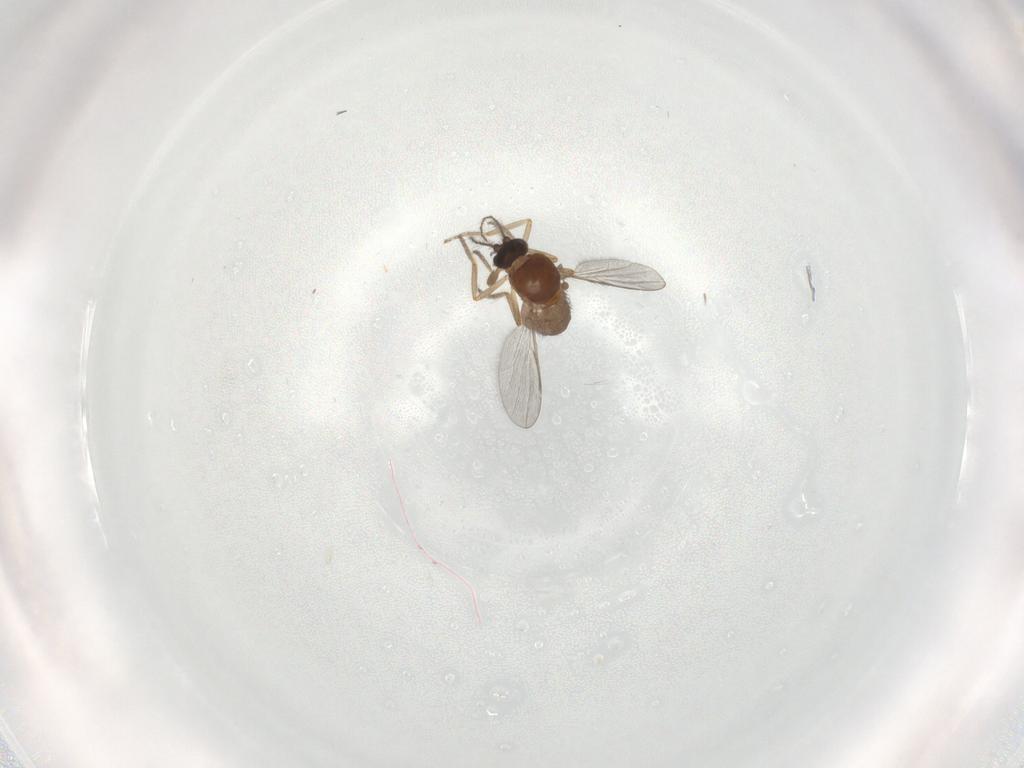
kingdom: Animalia
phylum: Arthropoda
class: Insecta
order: Diptera
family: Ceratopogonidae
